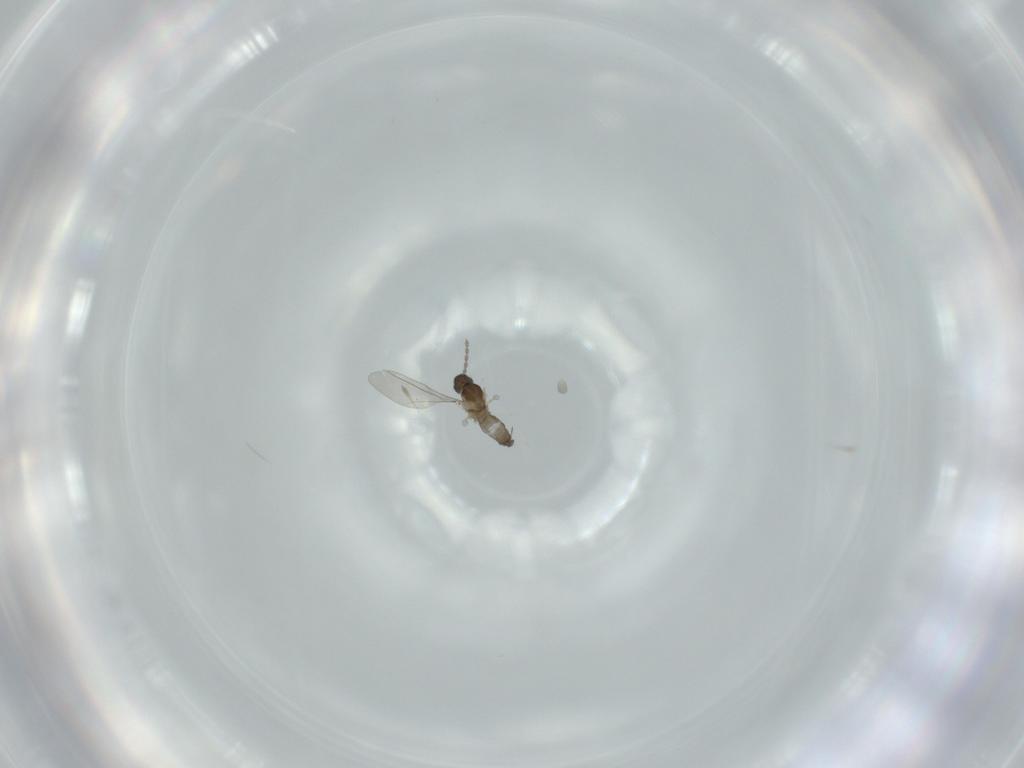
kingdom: Animalia
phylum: Arthropoda
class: Insecta
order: Diptera
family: Cecidomyiidae
